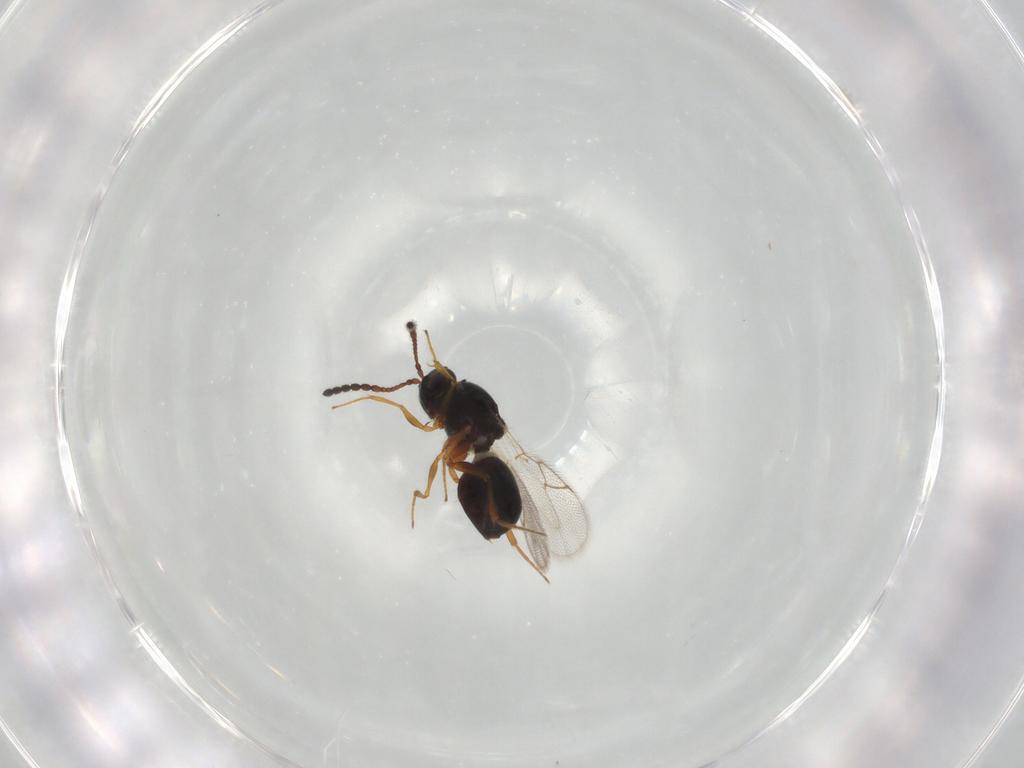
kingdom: Animalia
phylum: Arthropoda
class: Insecta
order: Hymenoptera
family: Figitidae
